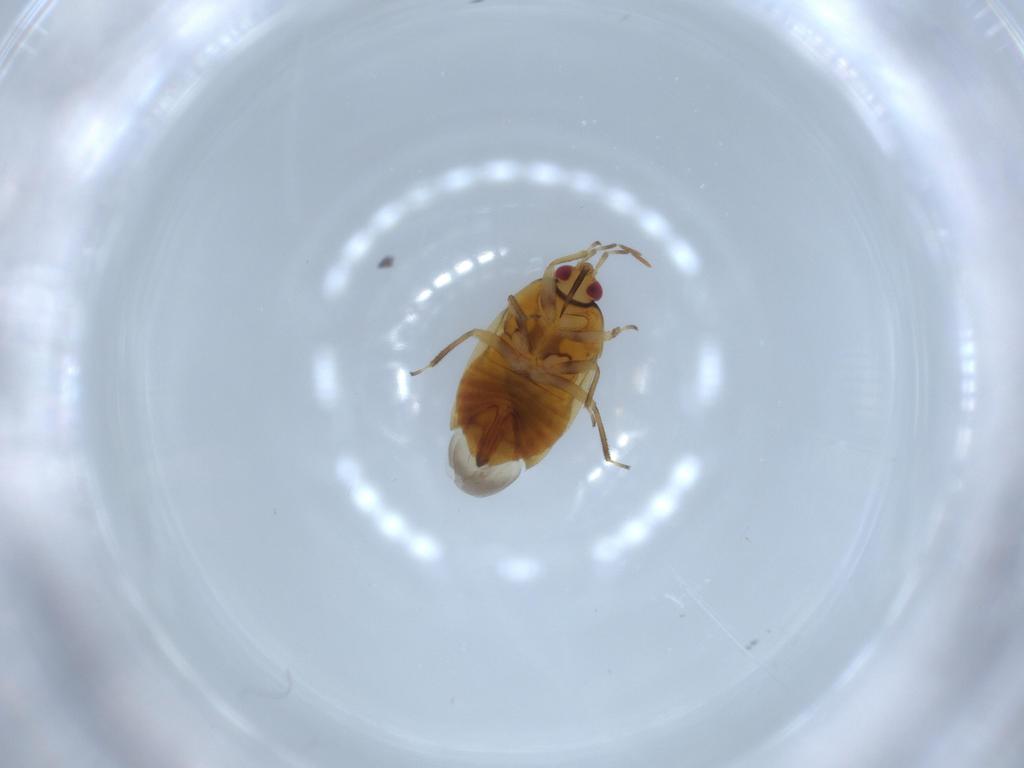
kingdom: Animalia
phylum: Arthropoda
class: Insecta
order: Hemiptera
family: Anthocoridae
